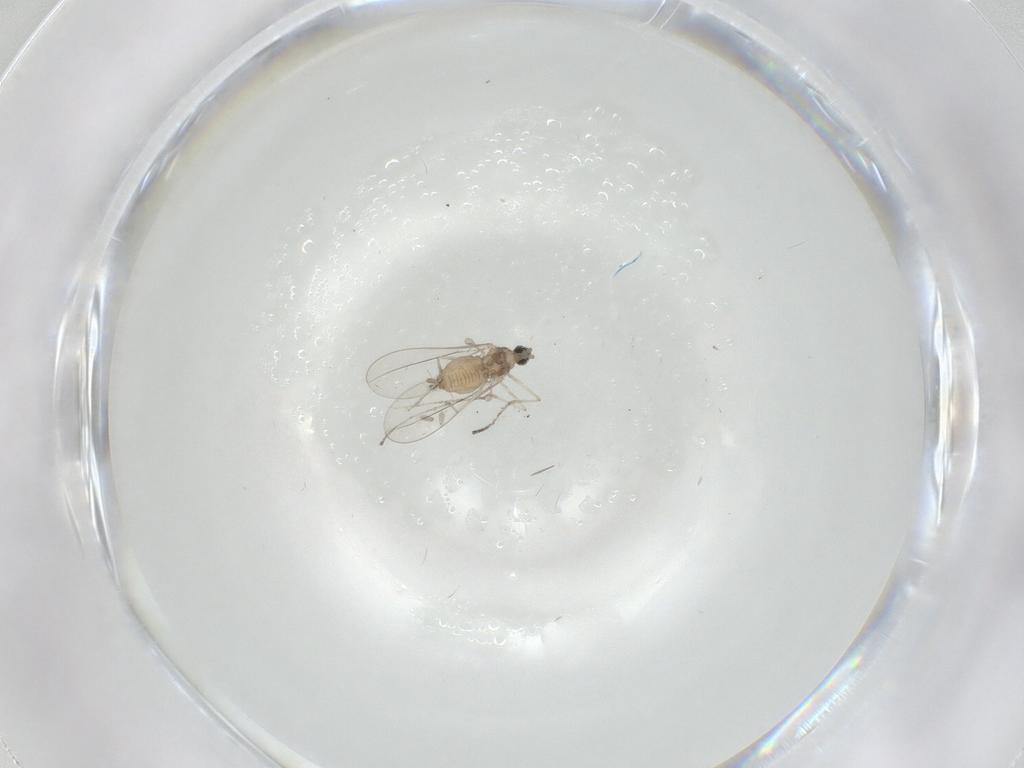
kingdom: Animalia
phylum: Arthropoda
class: Insecta
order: Diptera
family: Cecidomyiidae
